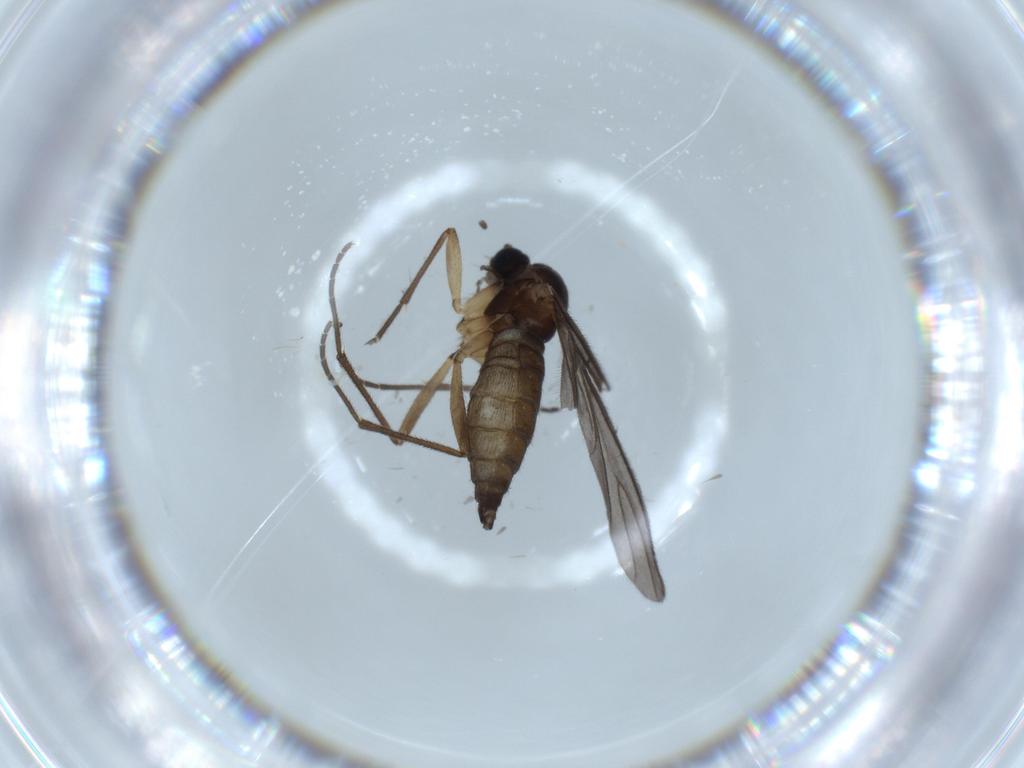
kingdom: Animalia
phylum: Arthropoda
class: Insecta
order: Diptera
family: Cecidomyiidae
